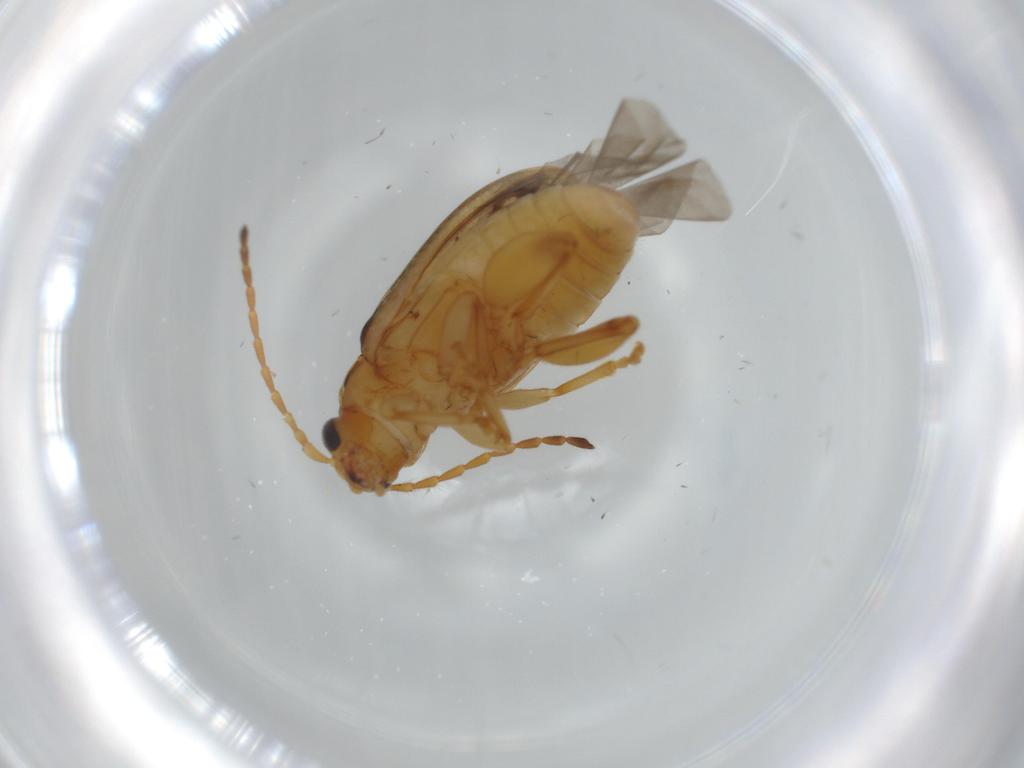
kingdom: Animalia
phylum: Arthropoda
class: Insecta
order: Coleoptera
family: Chrysomelidae
